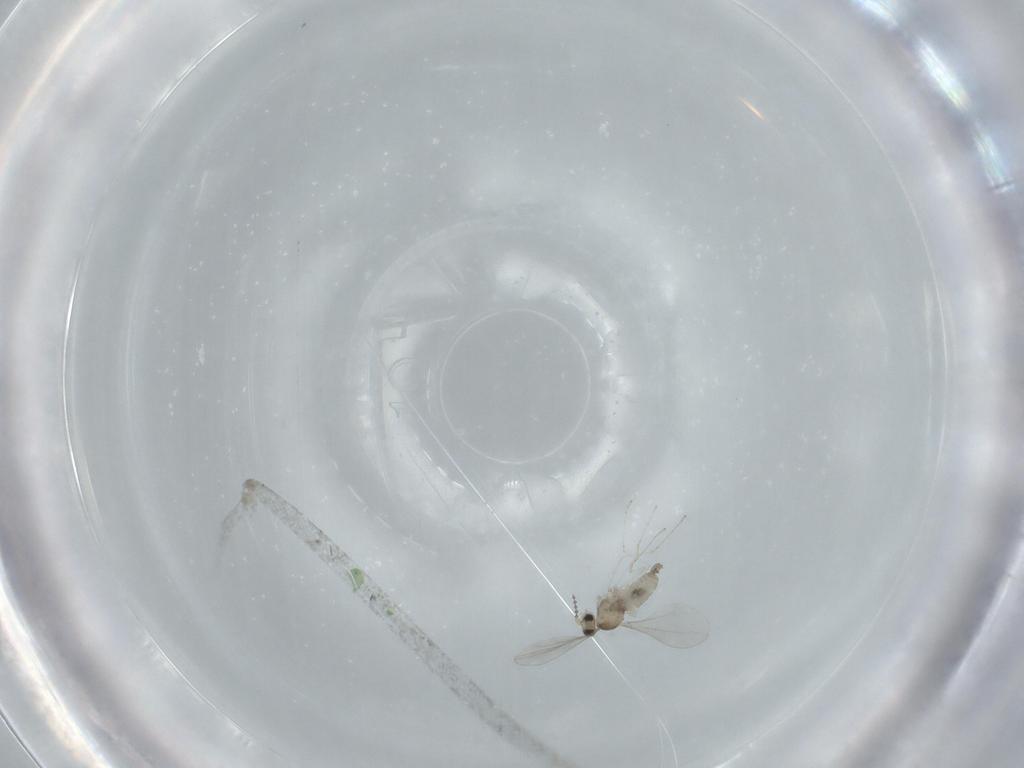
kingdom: Animalia
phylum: Arthropoda
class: Insecta
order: Diptera
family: Cecidomyiidae
